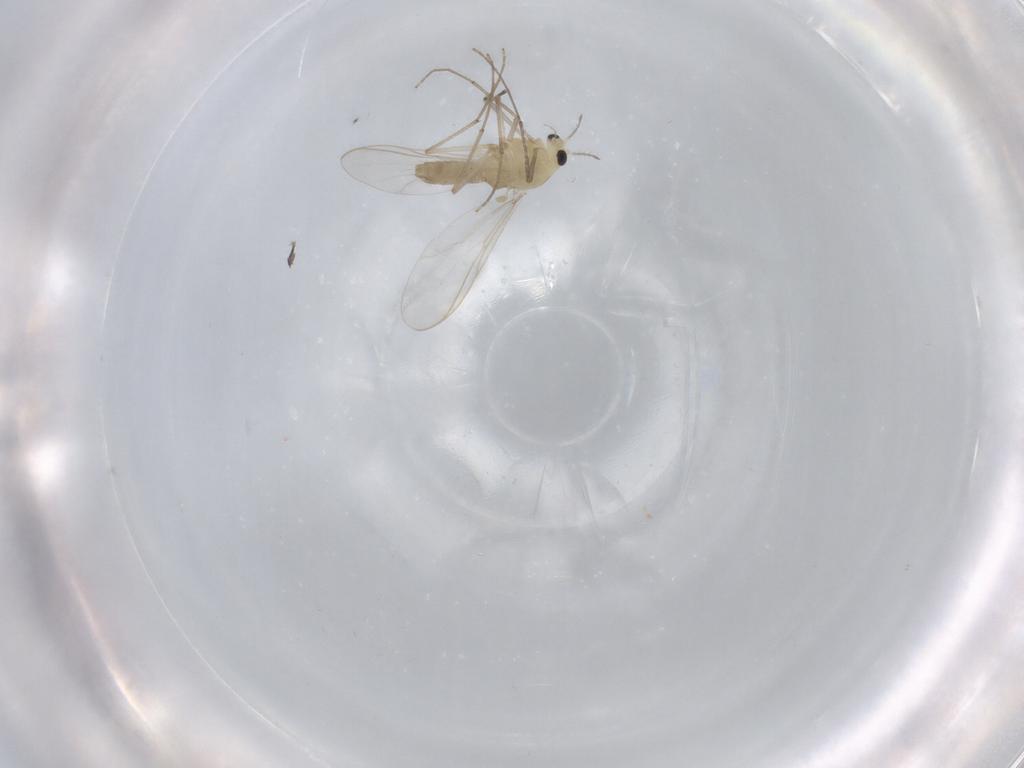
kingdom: Animalia
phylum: Arthropoda
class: Insecta
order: Diptera
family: Chironomidae
